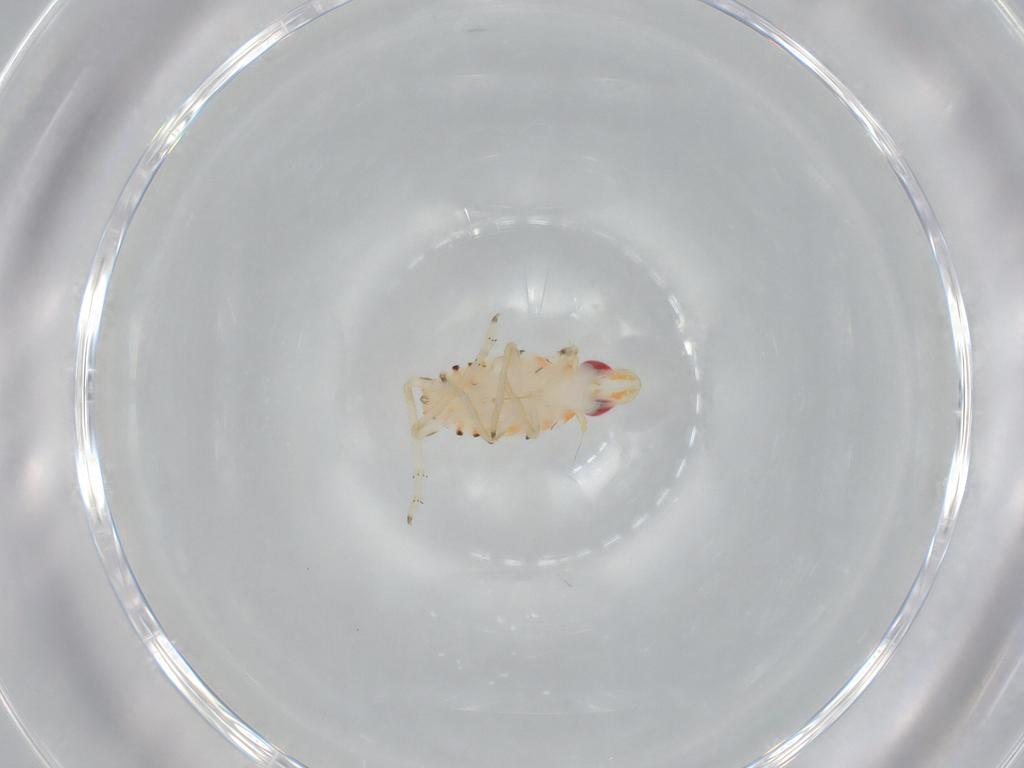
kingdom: Animalia
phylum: Arthropoda
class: Insecta
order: Hemiptera
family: Tropiduchidae
